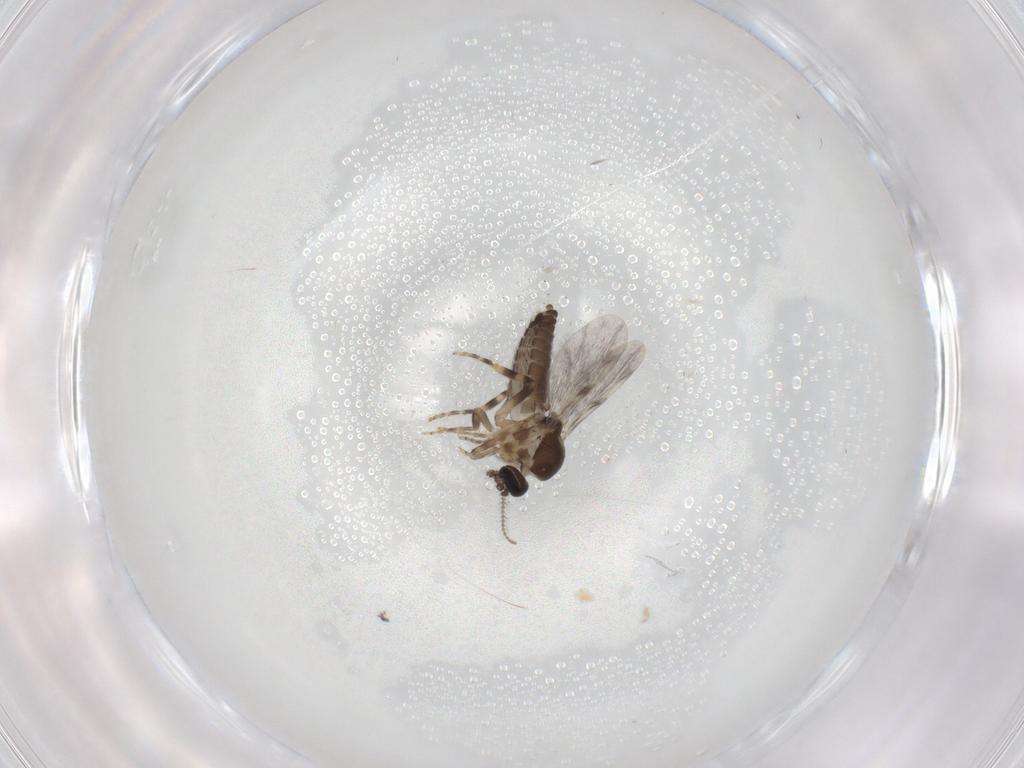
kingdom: Animalia
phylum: Arthropoda
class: Insecta
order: Diptera
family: Ceratopogonidae
